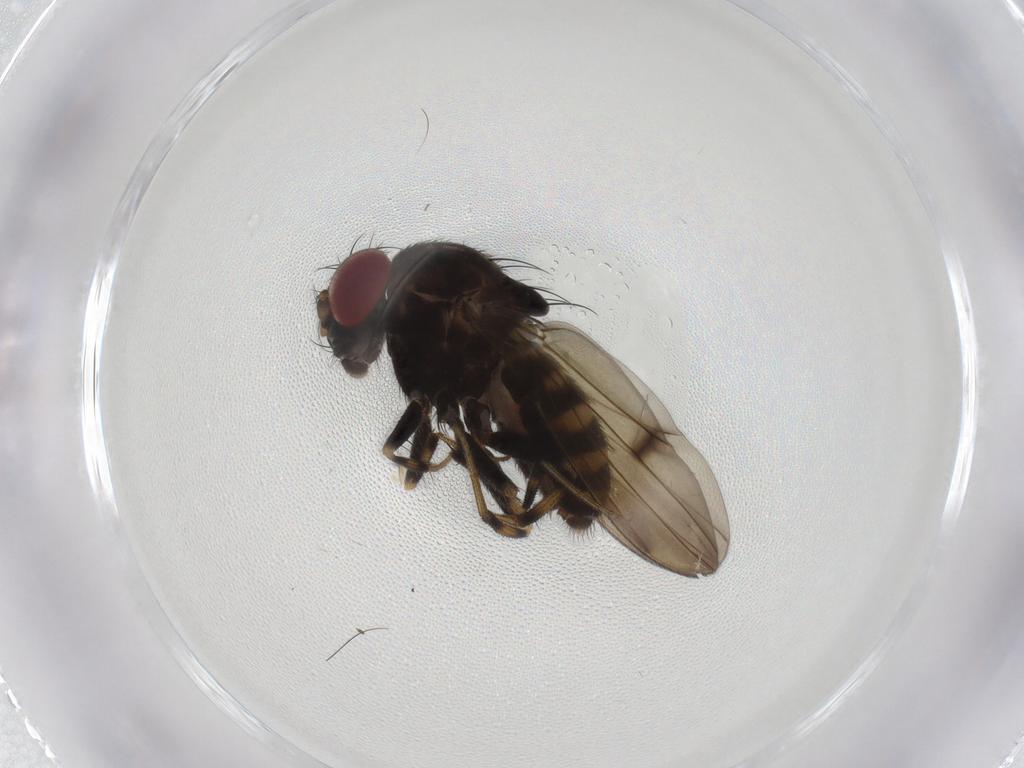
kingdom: Animalia
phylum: Arthropoda
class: Insecta
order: Diptera
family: Drosophilidae
